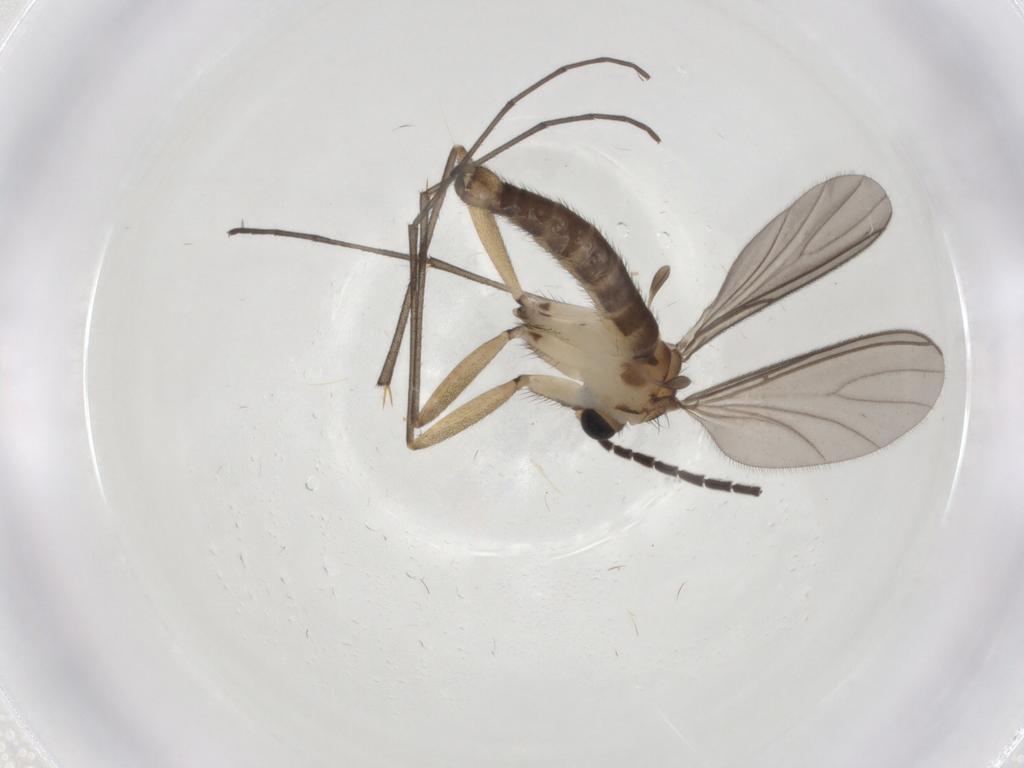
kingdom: Animalia
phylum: Arthropoda
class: Insecta
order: Diptera
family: Sciaridae
